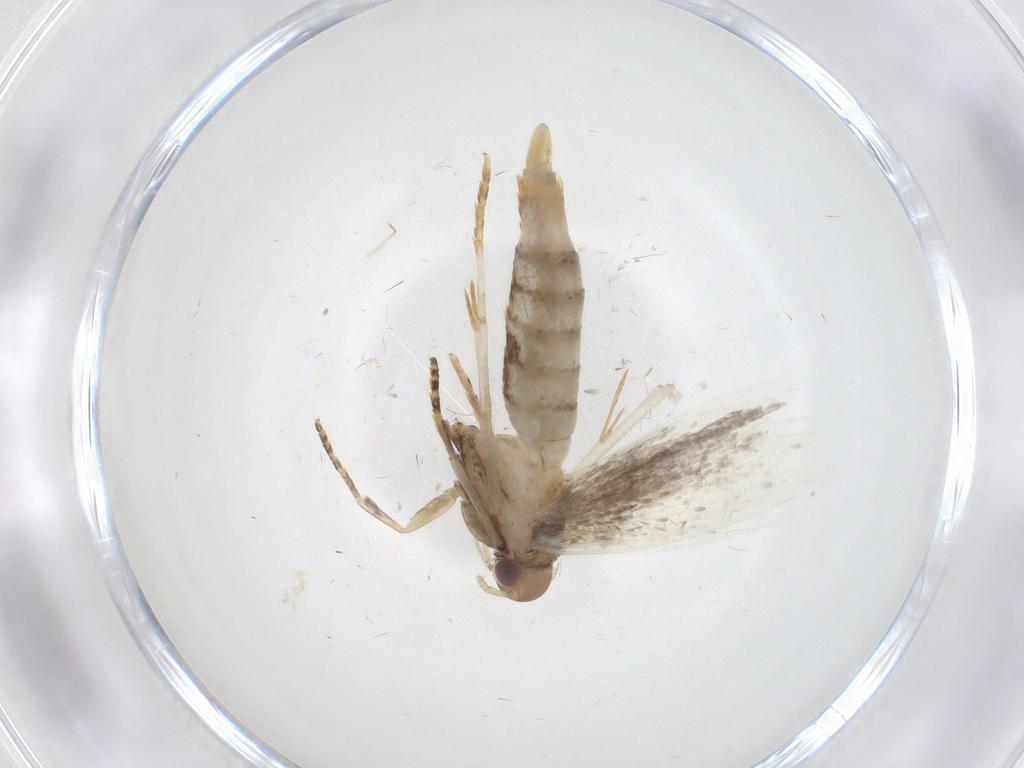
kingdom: Animalia
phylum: Arthropoda
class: Insecta
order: Lepidoptera
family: Gelechiidae
